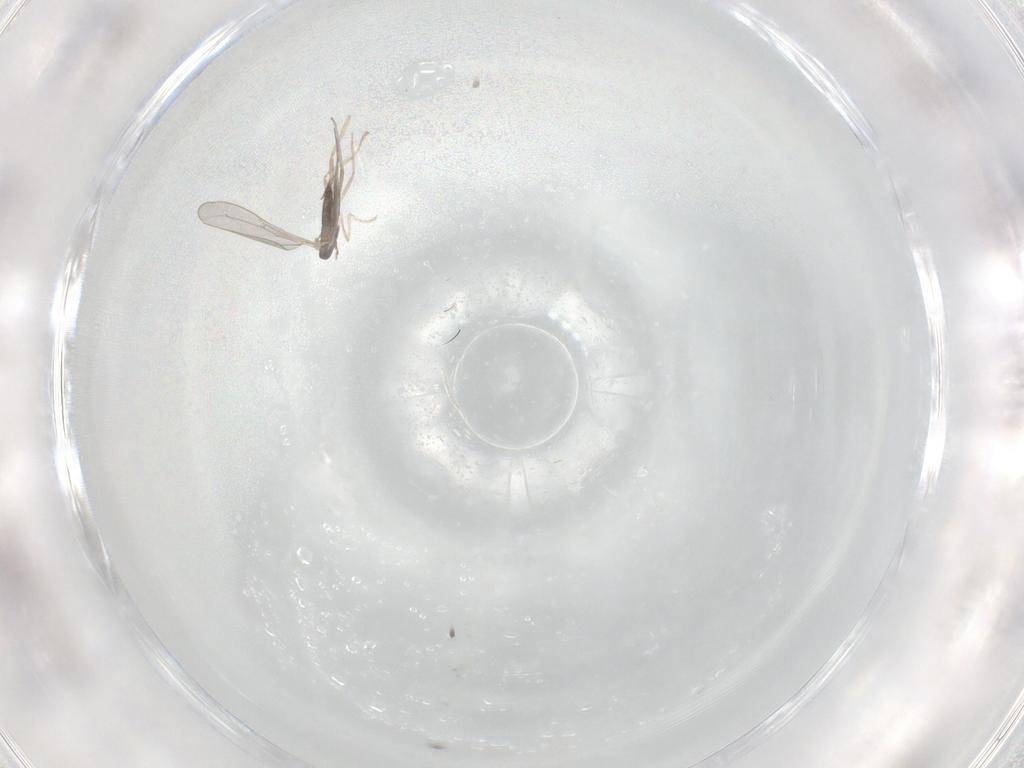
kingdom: Animalia
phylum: Arthropoda
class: Insecta
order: Diptera
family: Cecidomyiidae
